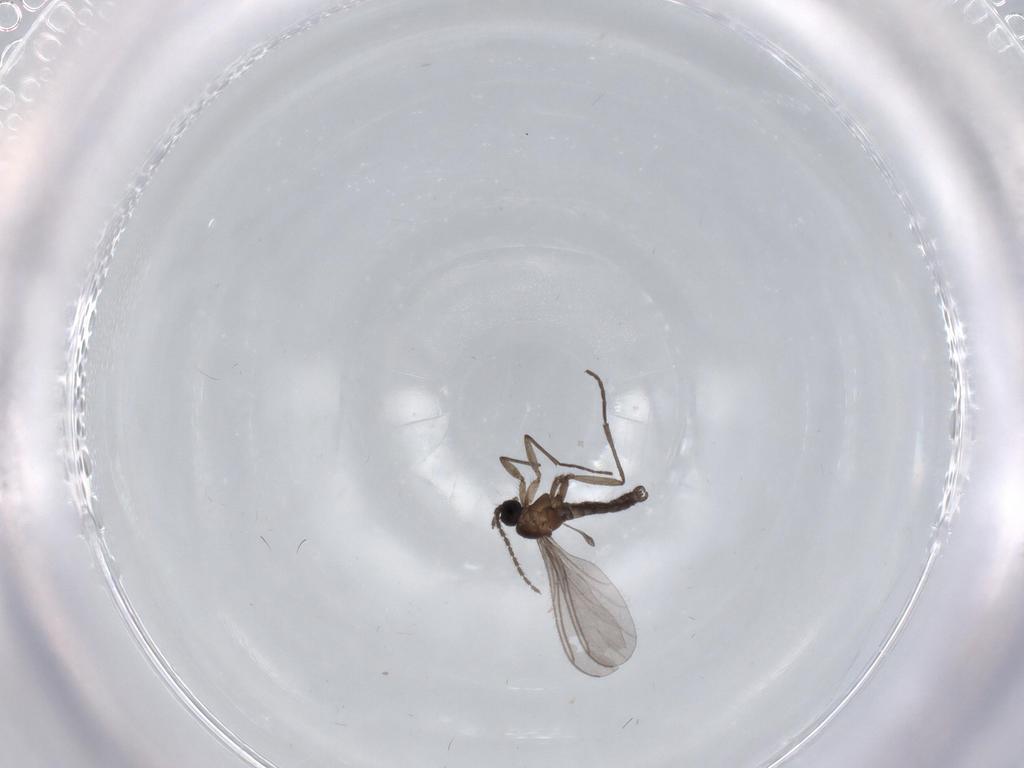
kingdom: Animalia
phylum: Arthropoda
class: Insecta
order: Diptera
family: Sciaridae
